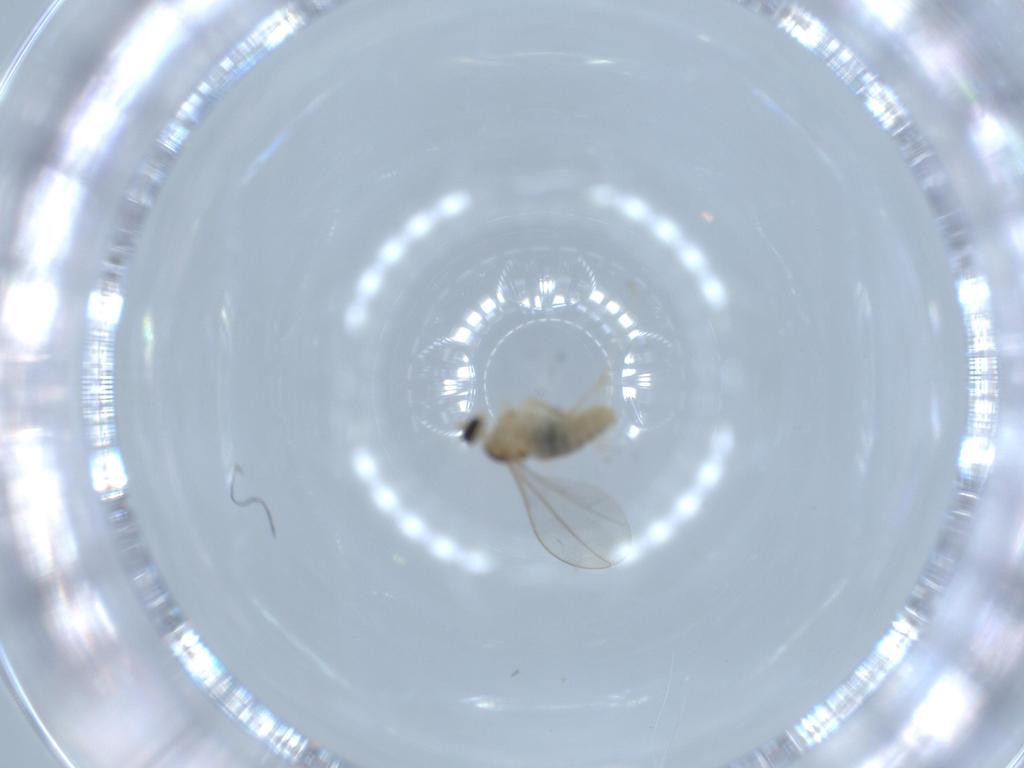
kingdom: Animalia
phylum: Arthropoda
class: Insecta
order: Diptera
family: Cecidomyiidae
